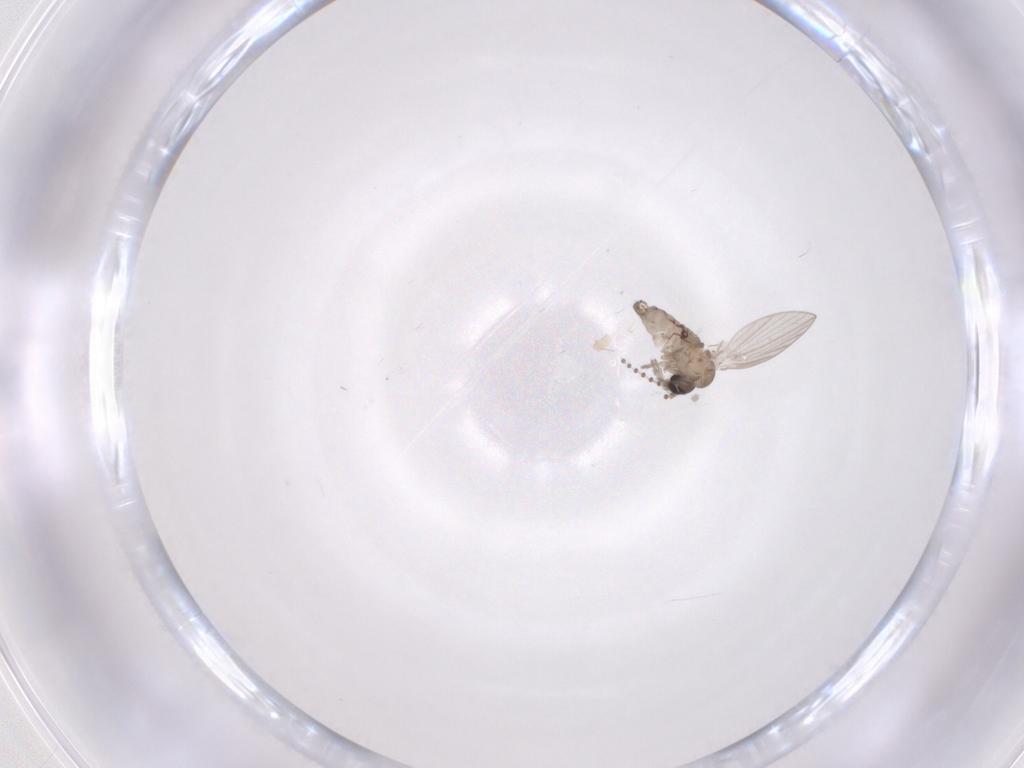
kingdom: Animalia
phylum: Arthropoda
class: Insecta
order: Diptera
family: Psychodidae
